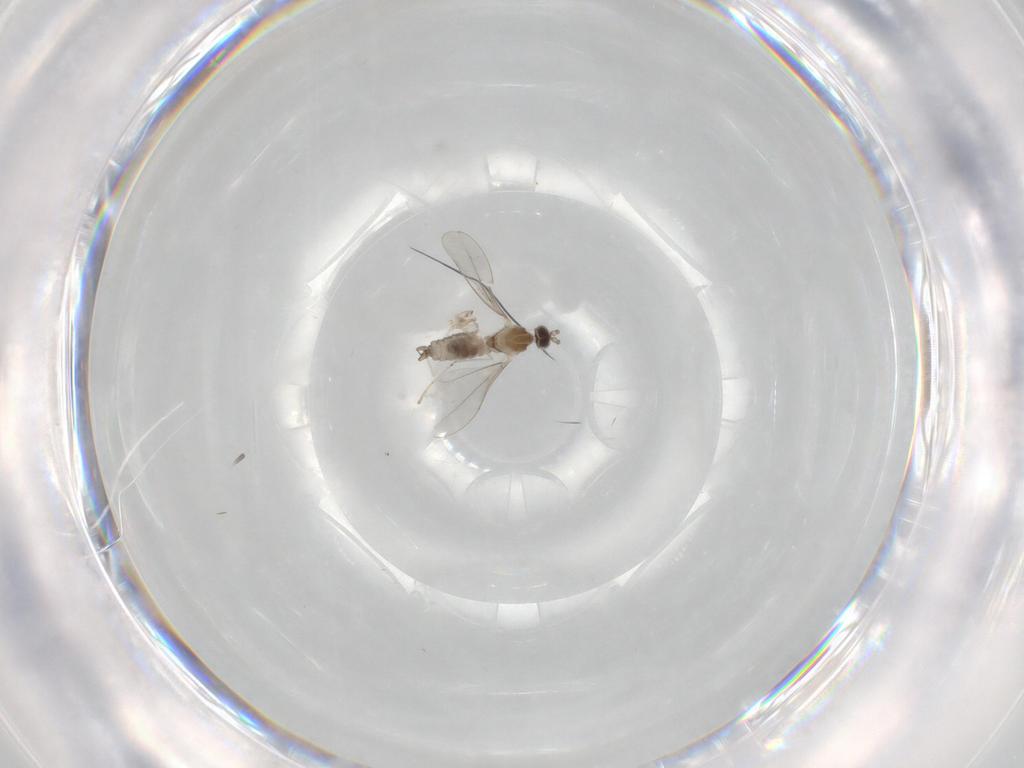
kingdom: Animalia
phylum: Arthropoda
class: Insecta
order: Diptera
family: Cecidomyiidae
